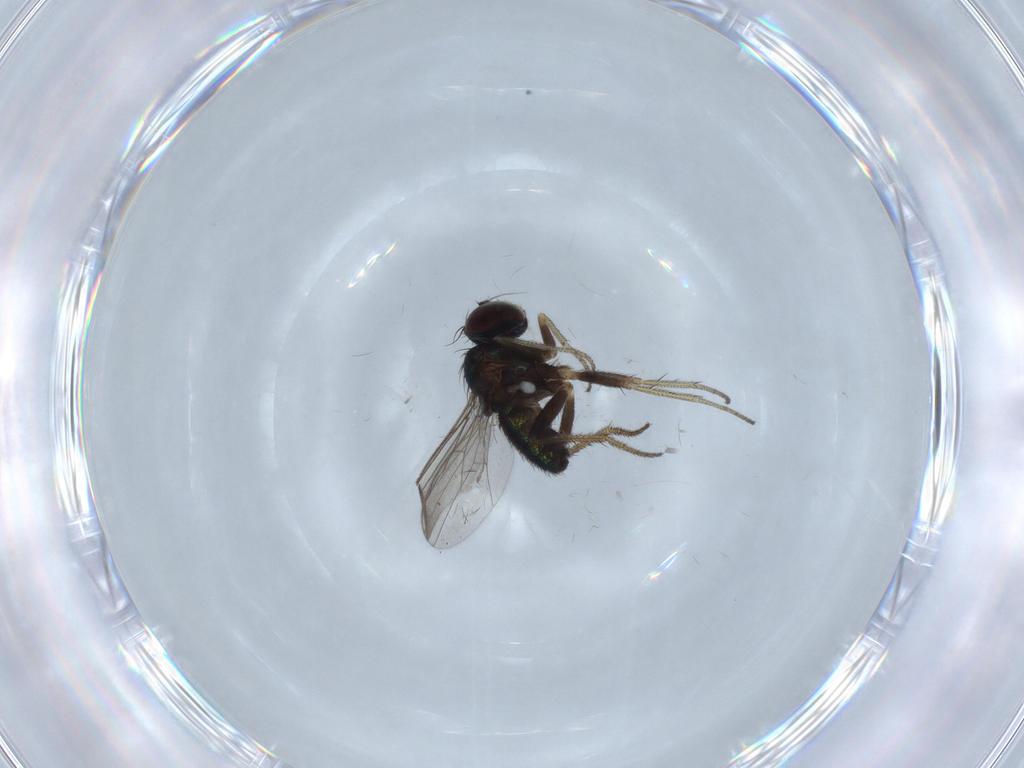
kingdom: Animalia
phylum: Arthropoda
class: Insecta
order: Diptera
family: Dolichopodidae
